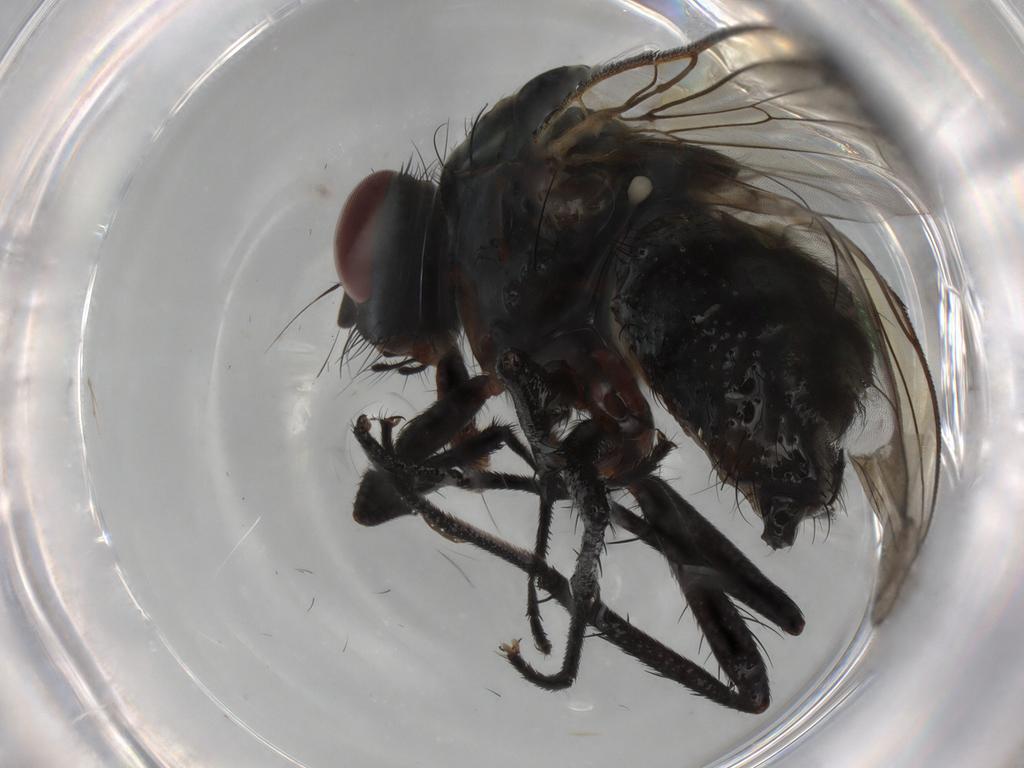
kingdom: Animalia
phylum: Arthropoda
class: Insecta
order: Diptera
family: Anthomyiidae
